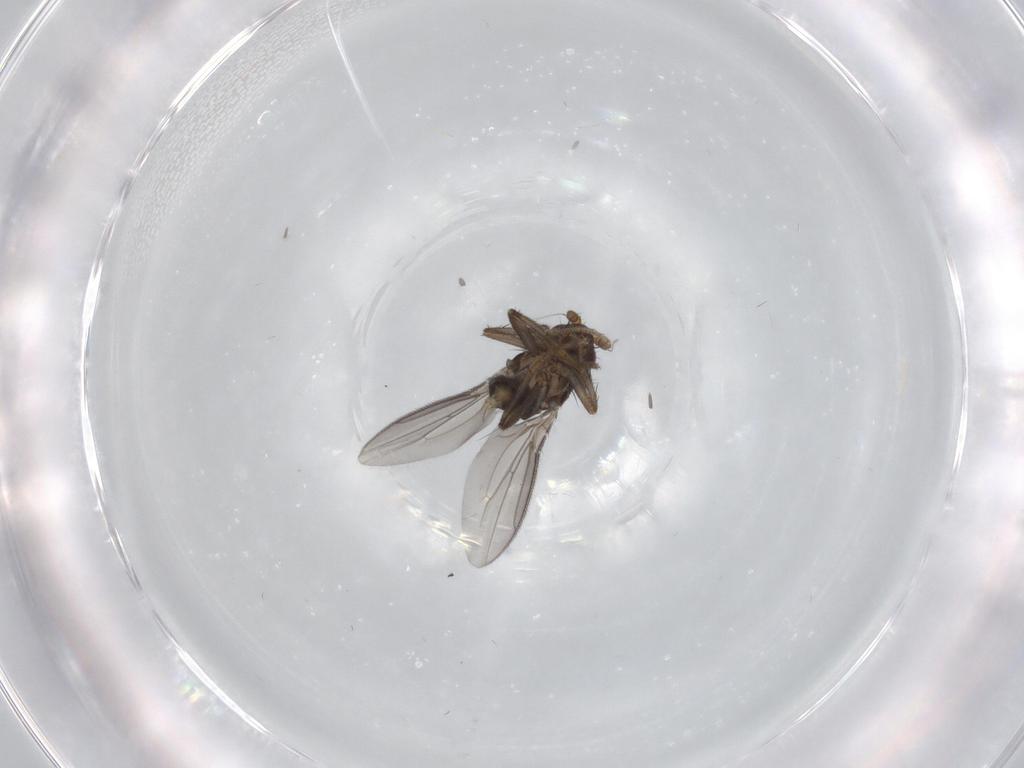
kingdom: Animalia
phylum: Arthropoda
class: Insecta
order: Diptera
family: Sphaeroceridae
